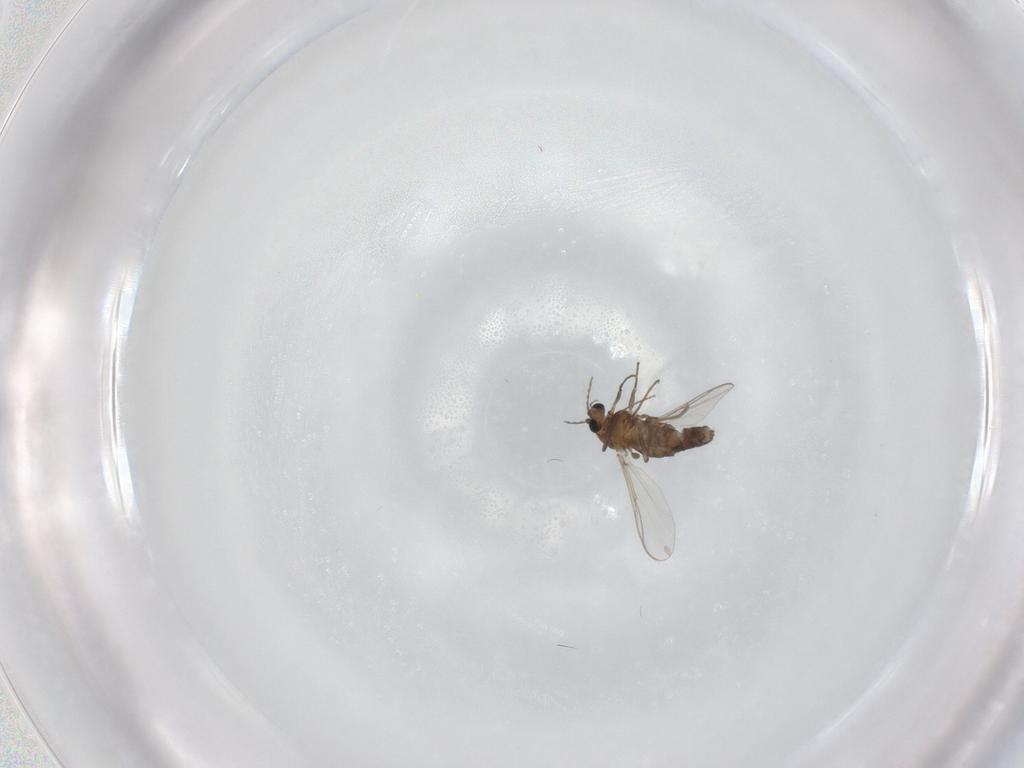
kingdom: Animalia
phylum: Arthropoda
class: Insecta
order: Diptera
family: Chironomidae
